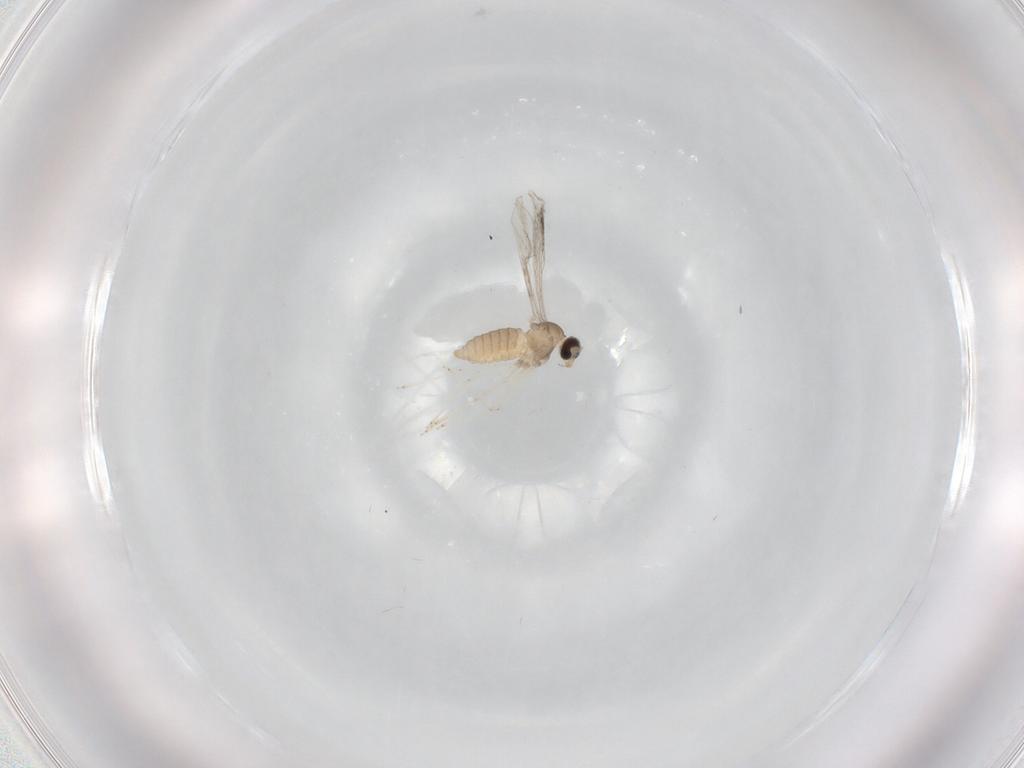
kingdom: Animalia
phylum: Arthropoda
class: Insecta
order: Diptera
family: Cecidomyiidae
